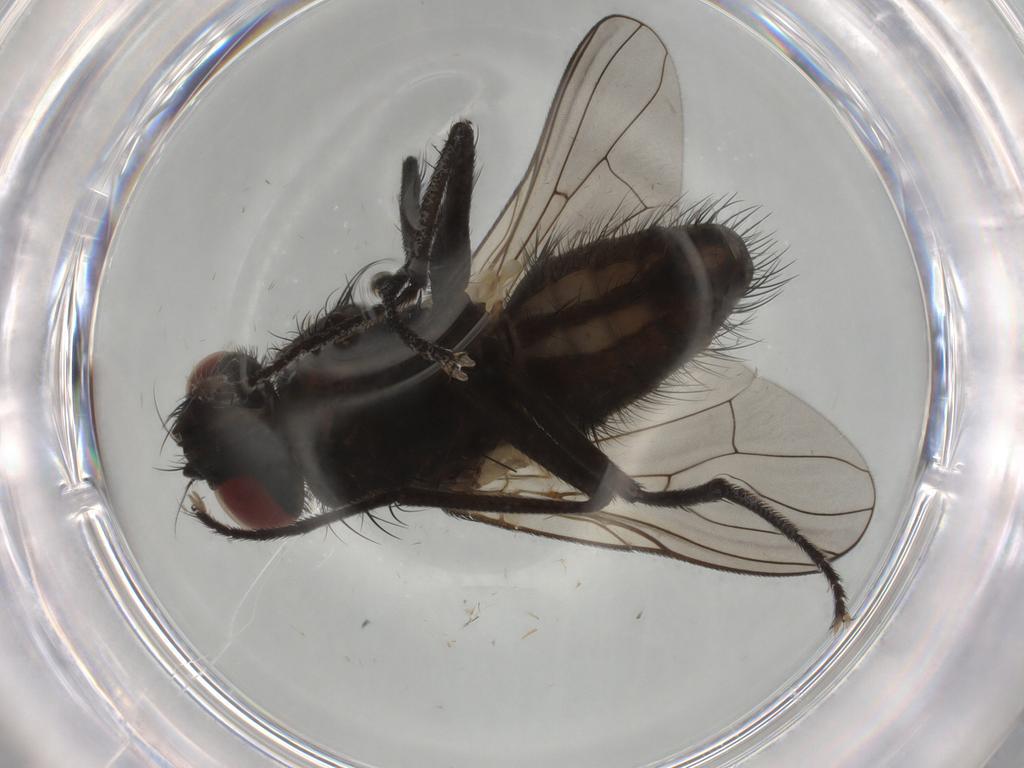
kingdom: Animalia
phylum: Arthropoda
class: Insecta
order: Diptera
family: Muscidae
